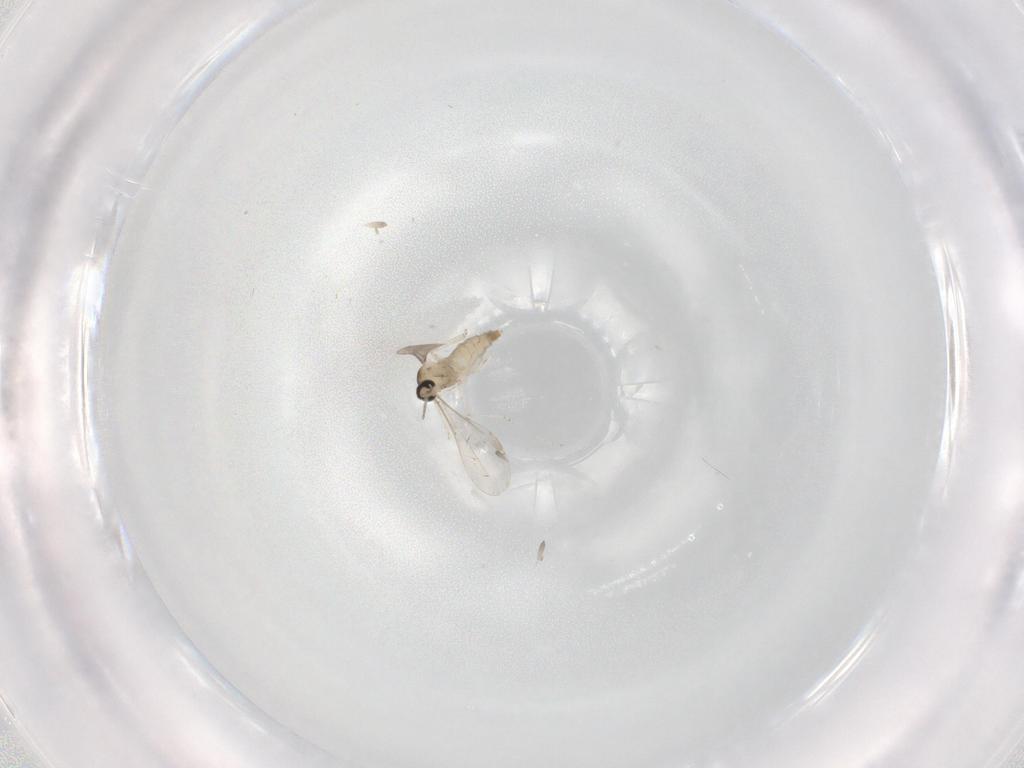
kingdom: Animalia
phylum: Arthropoda
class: Insecta
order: Diptera
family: Cecidomyiidae
